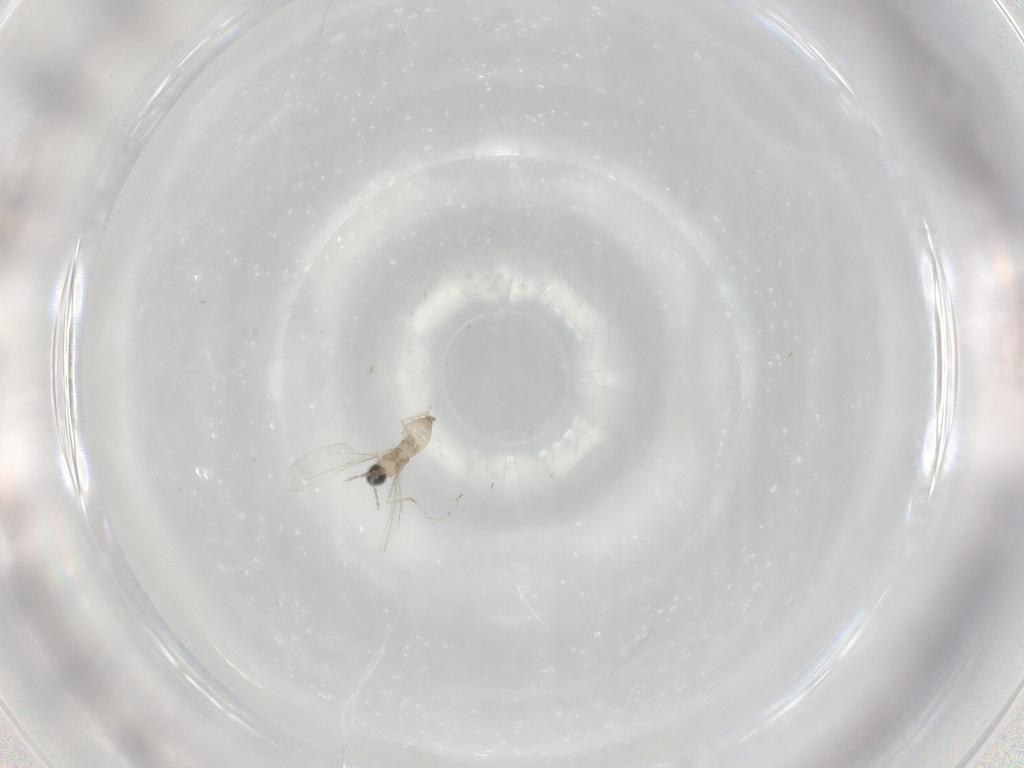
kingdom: Animalia
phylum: Arthropoda
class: Insecta
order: Diptera
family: Cecidomyiidae
